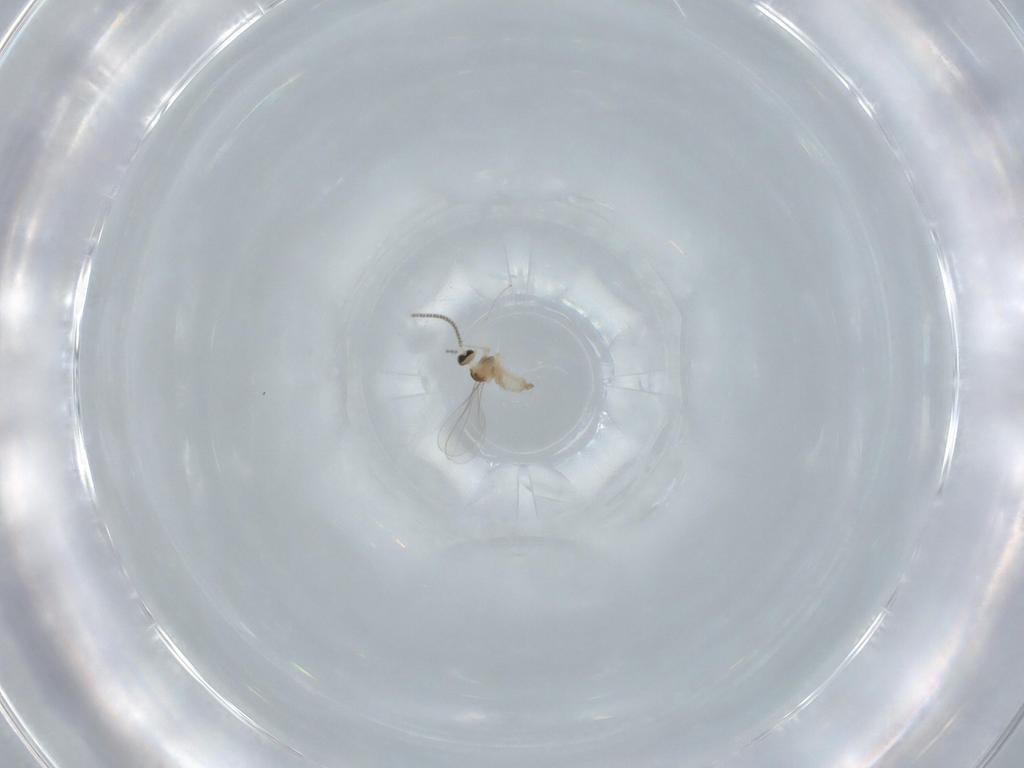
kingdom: Animalia
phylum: Arthropoda
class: Insecta
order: Diptera
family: Cecidomyiidae
